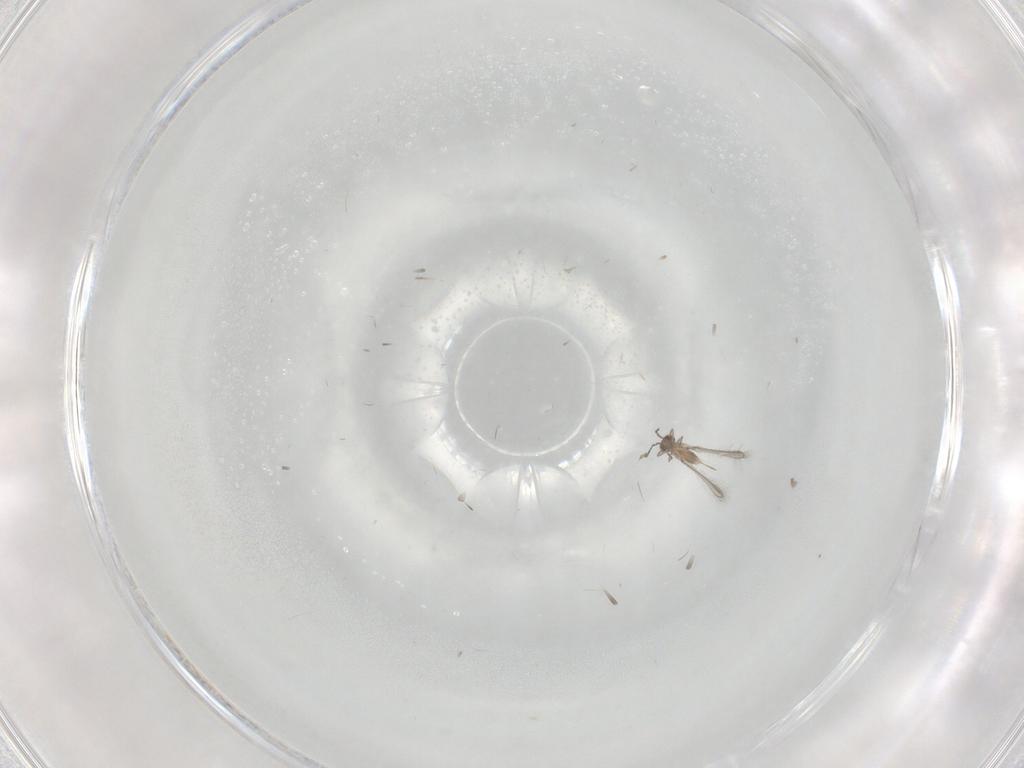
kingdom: Animalia
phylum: Arthropoda
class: Insecta
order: Hymenoptera
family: Mymaridae
